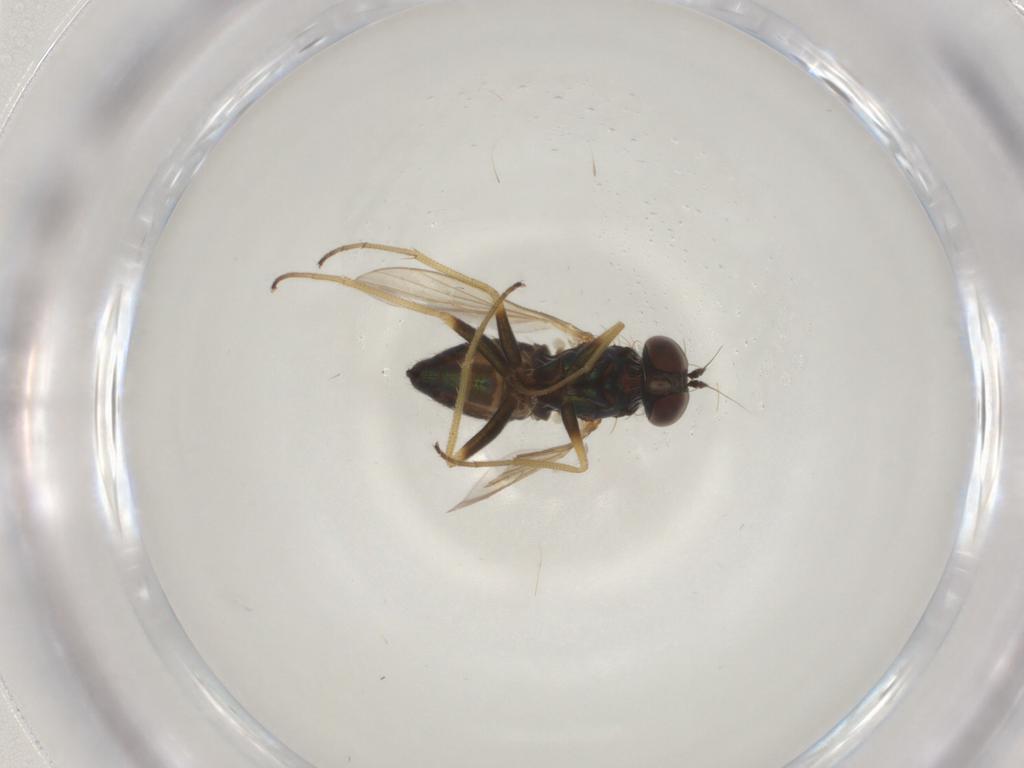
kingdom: Animalia
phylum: Arthropoda
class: Insecta
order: Diptera
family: Dolichopodidae
